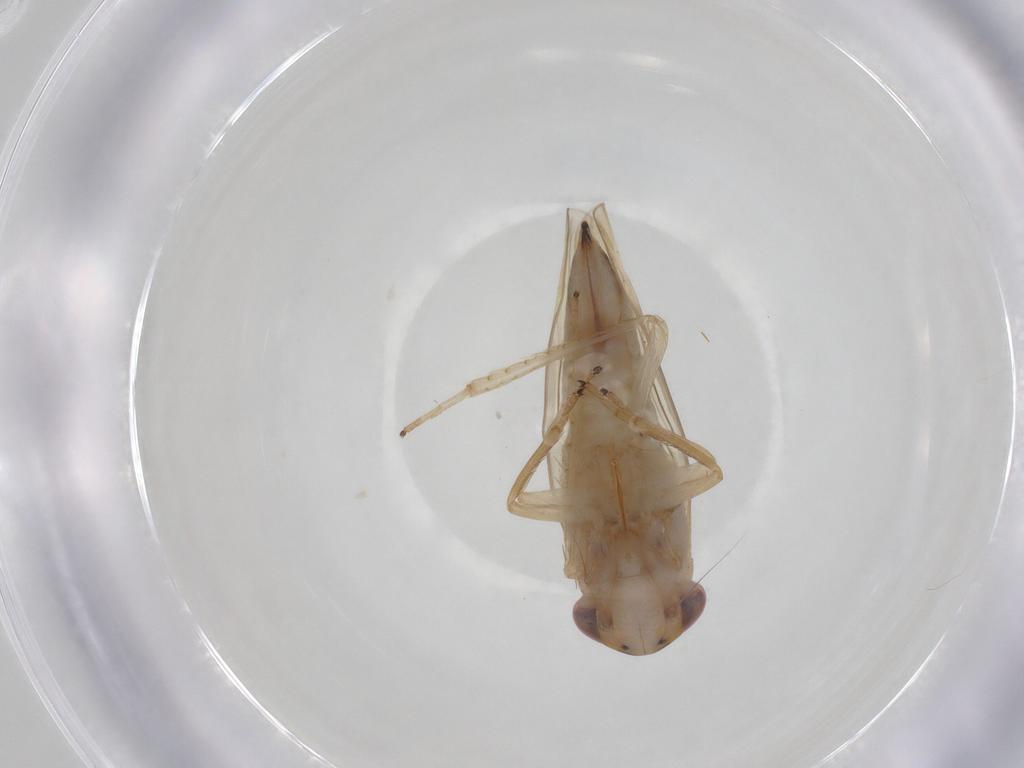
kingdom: Animalia
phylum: Arthropoda
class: Insecta
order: Hemiptera
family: Cicadellidae
